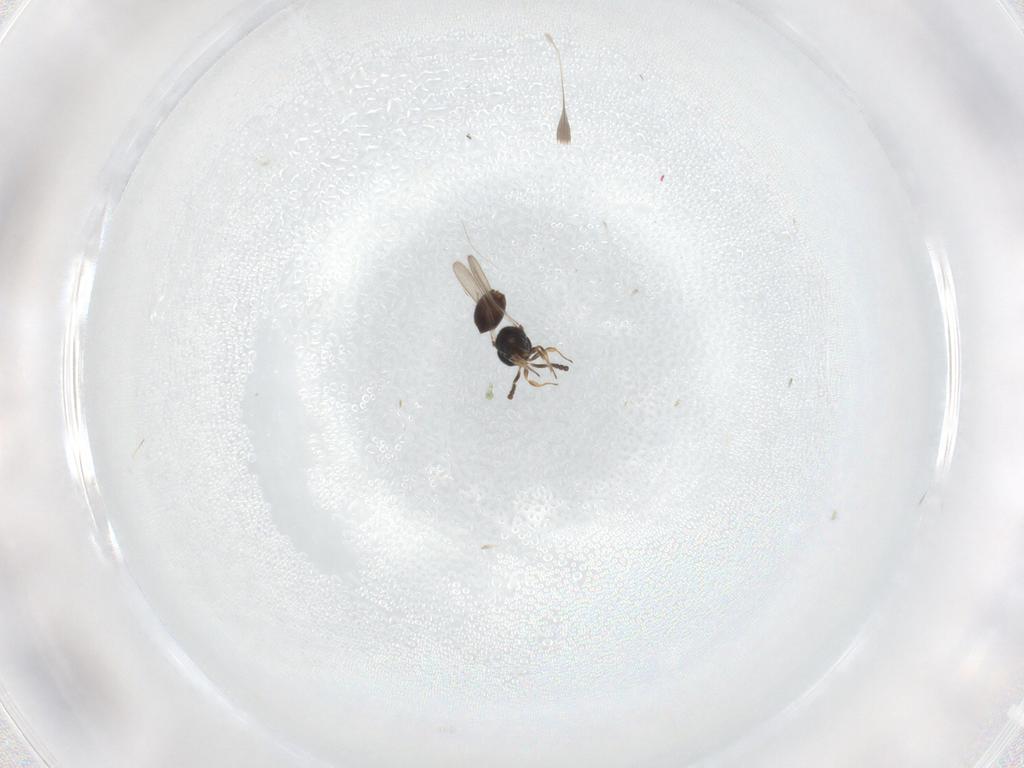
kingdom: Animalia
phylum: Arthropoda
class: Insecta
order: Hymenoptera
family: Scelionidae
